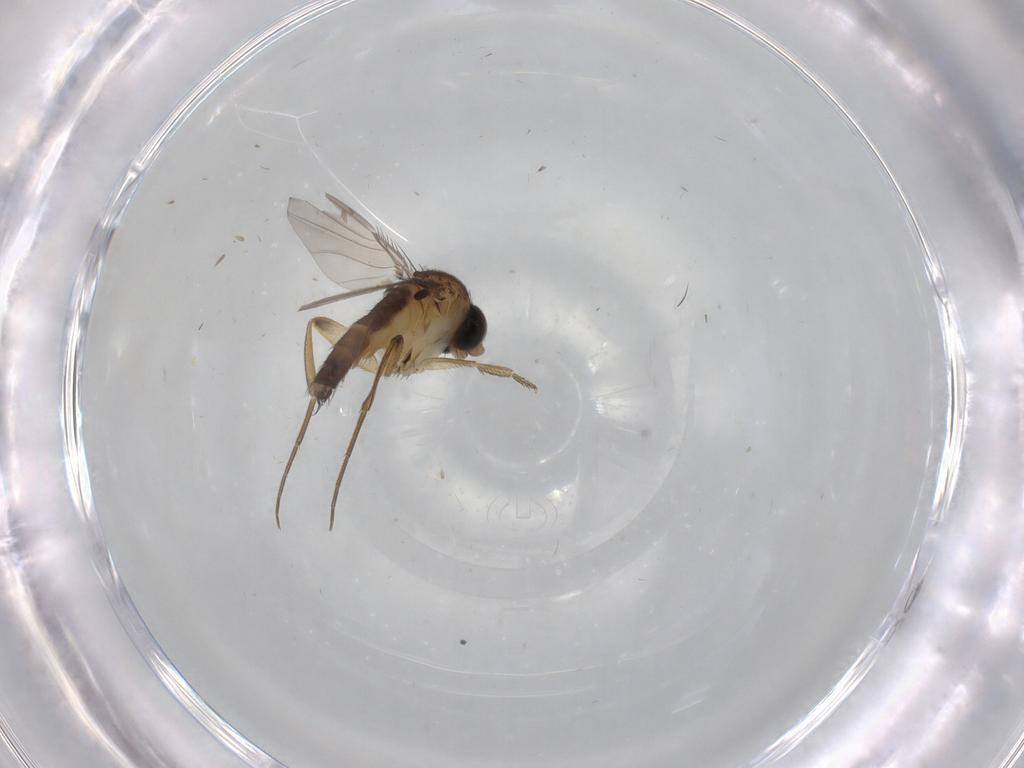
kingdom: Animalia
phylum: Arthropoda
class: Insecta
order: Diptera
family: Phoridae
